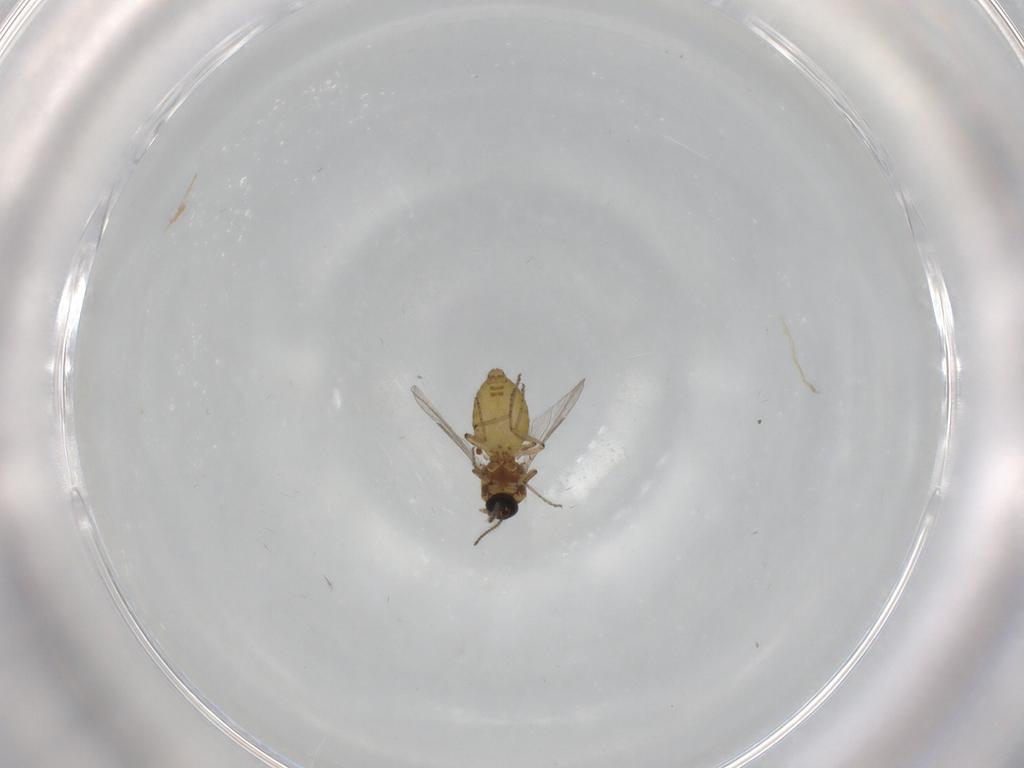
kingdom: Animalia
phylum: Arthropoda
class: Insecta
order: Diptera
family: Ceratopogonidae
